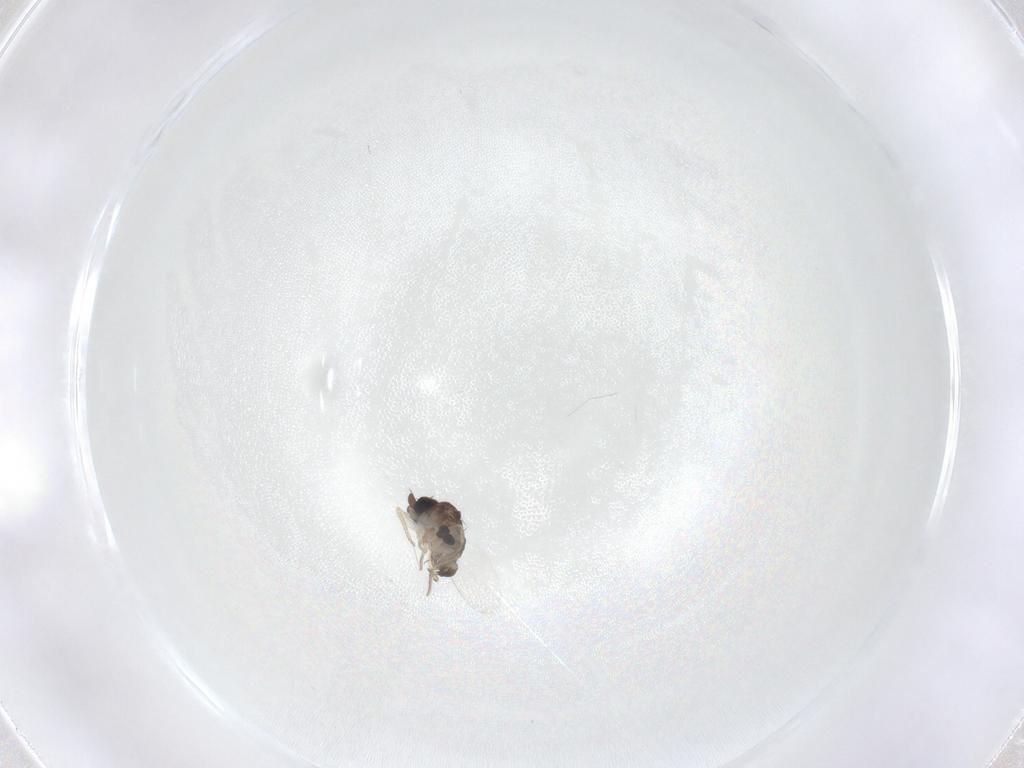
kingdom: Animalia
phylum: Arthropoda
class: Insecta
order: Diptera
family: Phoridae
